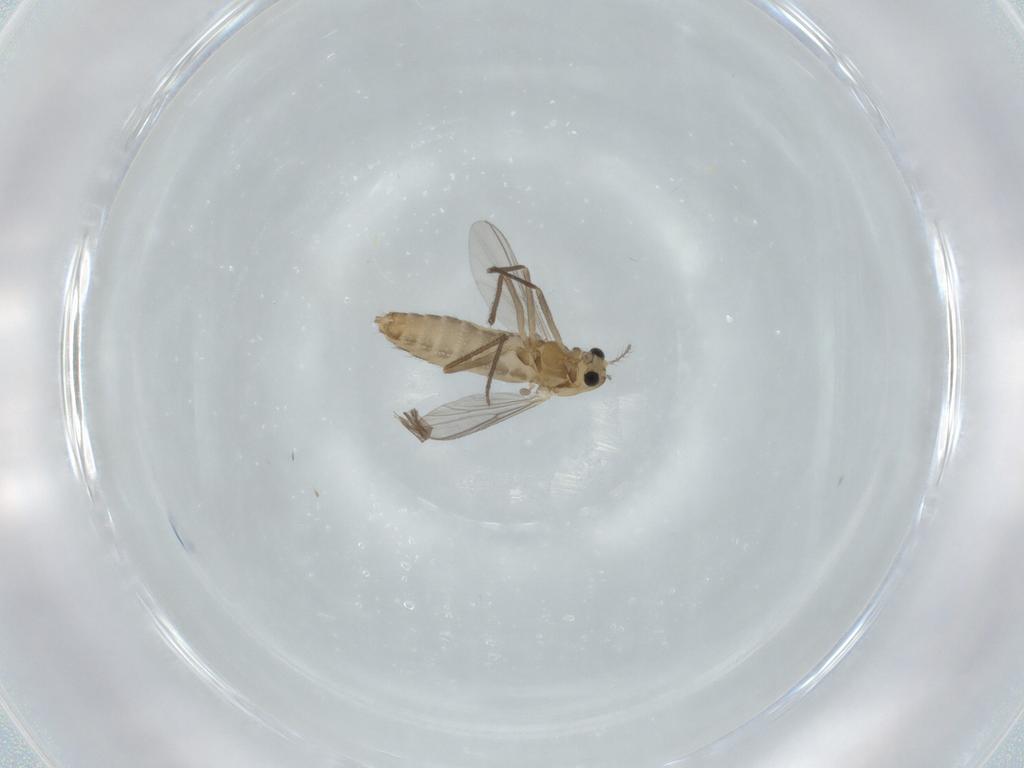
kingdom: Animalia
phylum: Arthropoda
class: Insecta
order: Diptera
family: Chironomidae
